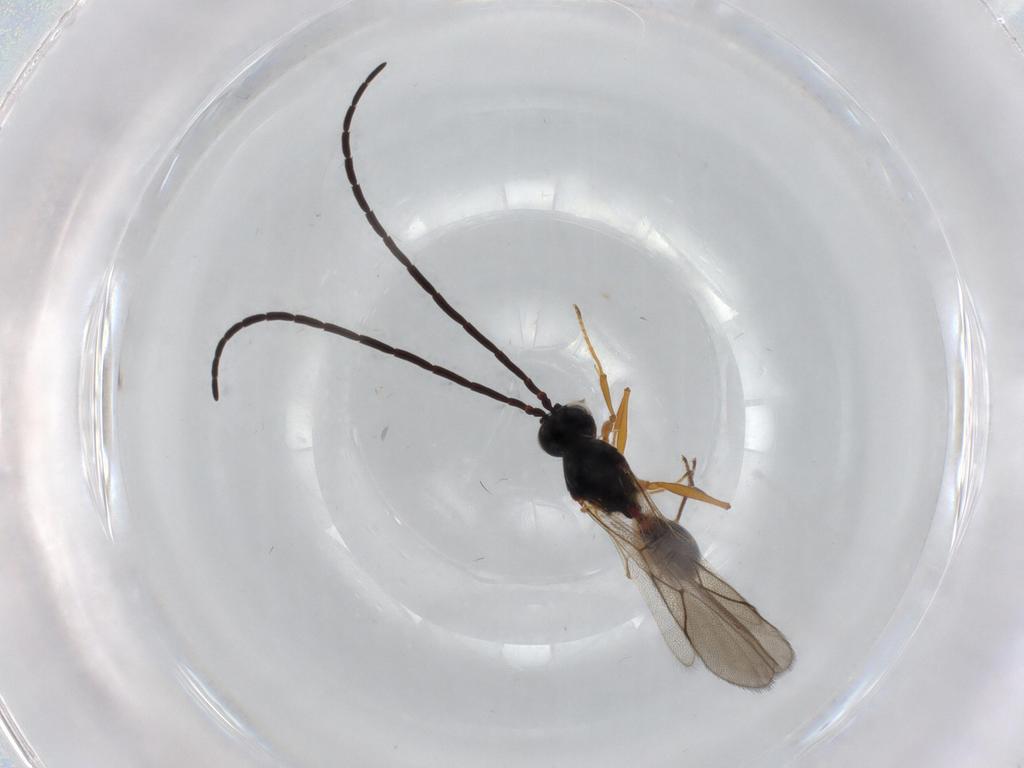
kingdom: Animalia
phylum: Arthropoda
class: Insecta
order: Hymenoptera
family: Figitidae
